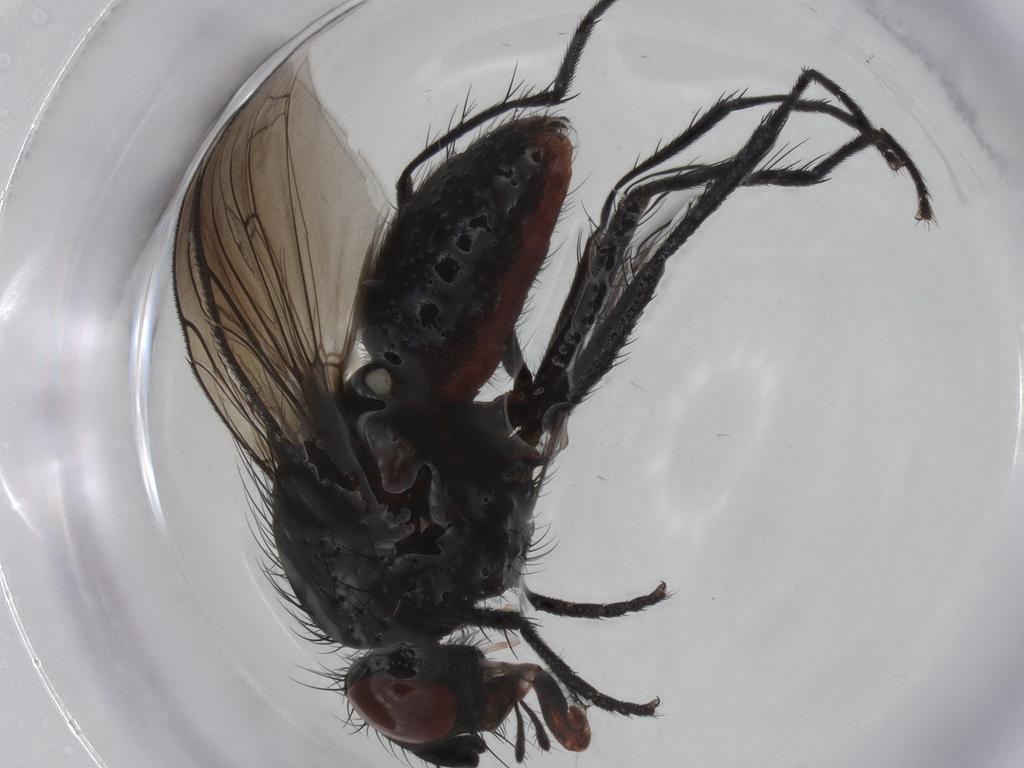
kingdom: Animalia
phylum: Arthropoda
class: Insecta
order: Diptera
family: Anthomyiidae
